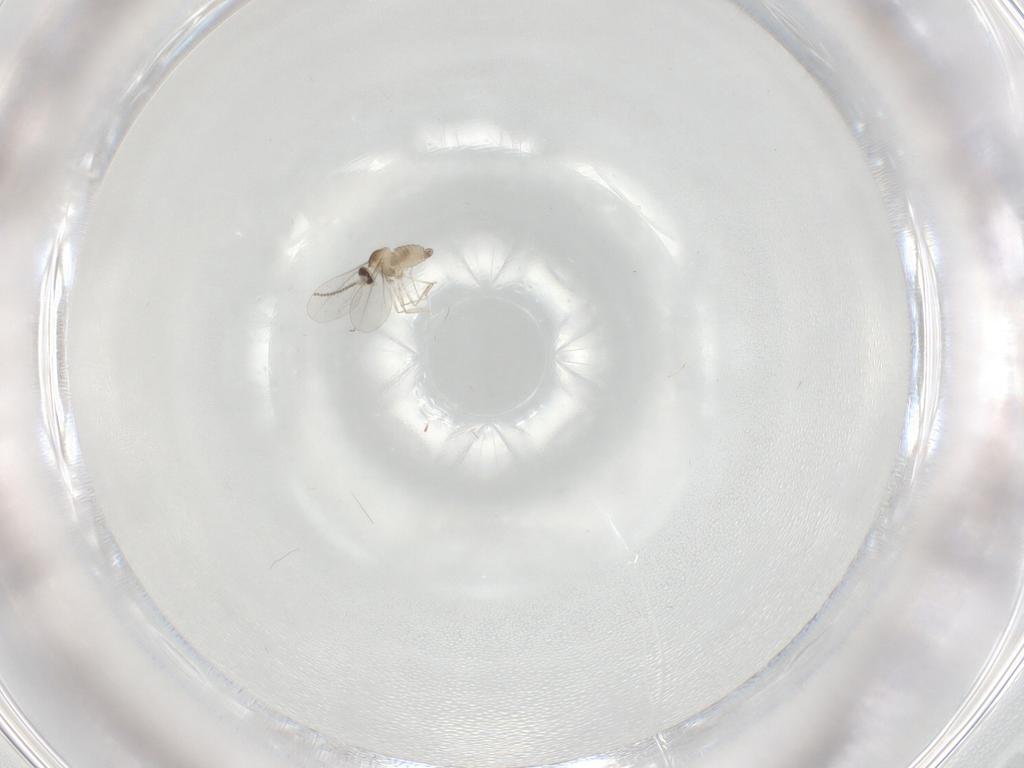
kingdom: Animalia
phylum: Arthropoda
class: Insecta
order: Diptera
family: Cecidomyiidae
